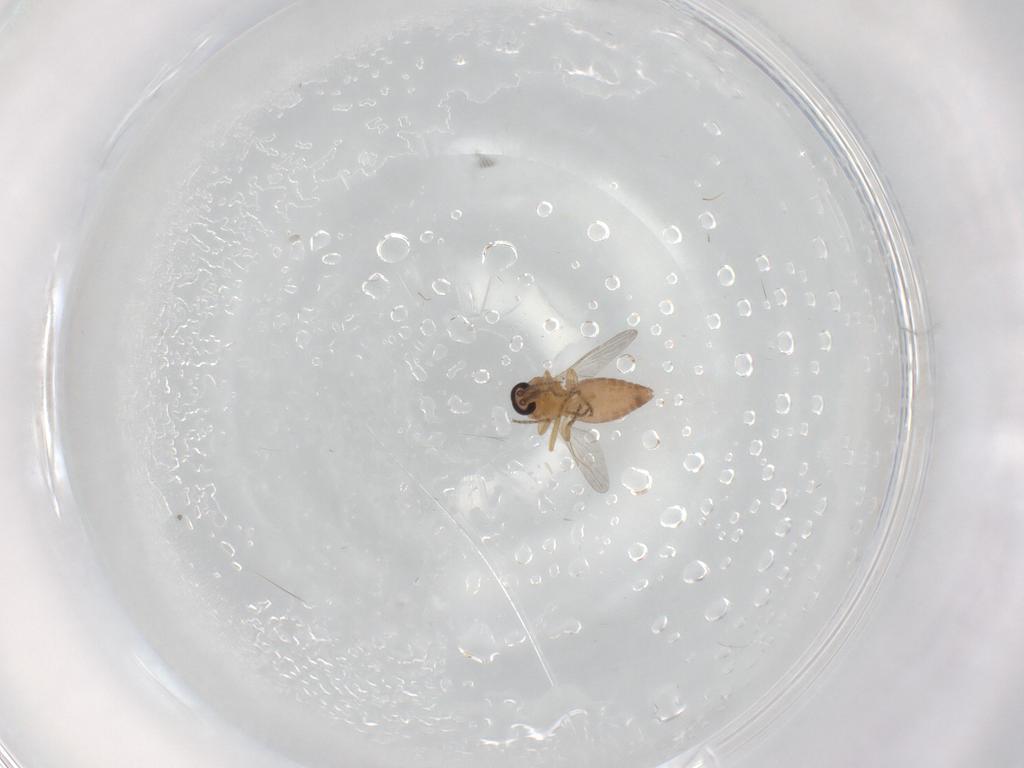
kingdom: Animalia
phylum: Arthropoda
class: Insecta
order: Diptera
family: Ceratopogonidae
